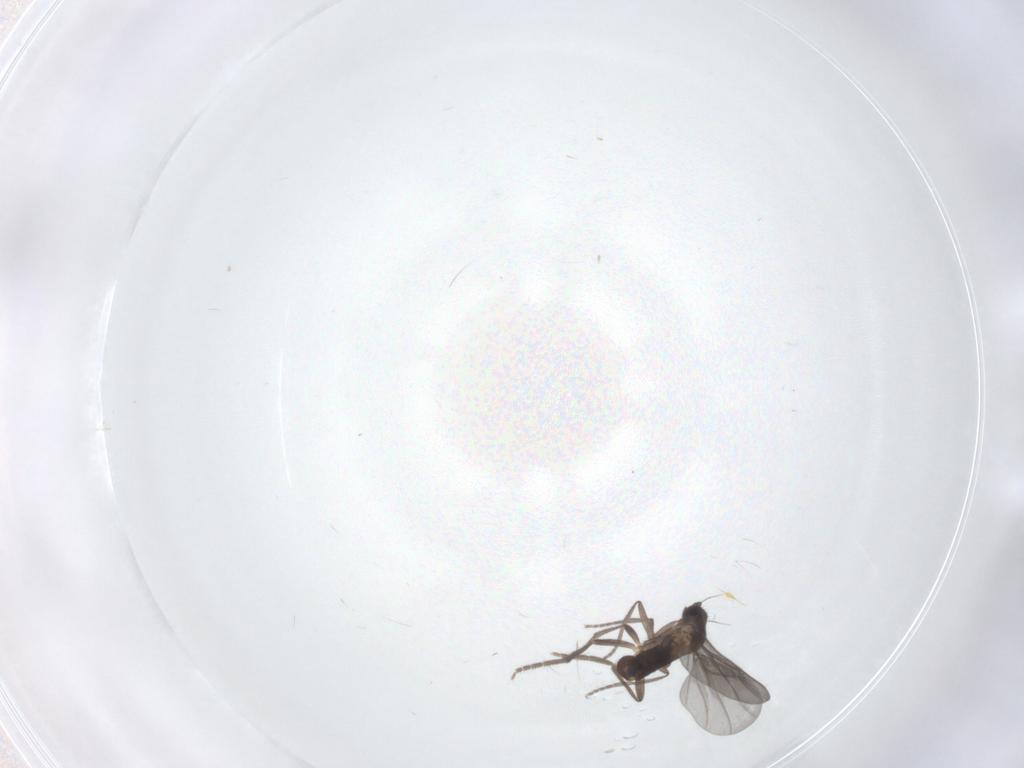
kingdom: Animalia
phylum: Arthropoda
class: Insecta
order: Diptera
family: Phoridae
